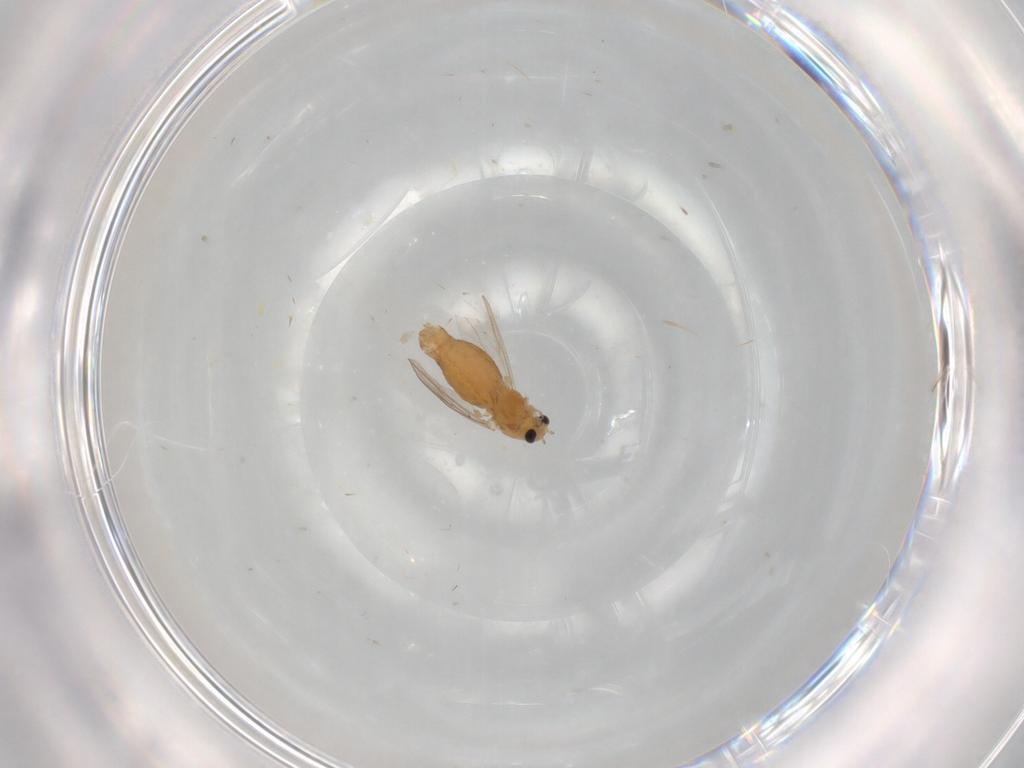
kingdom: Animalia
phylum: Arthropoda
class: Insecta
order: Diptera
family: Chironomidae
